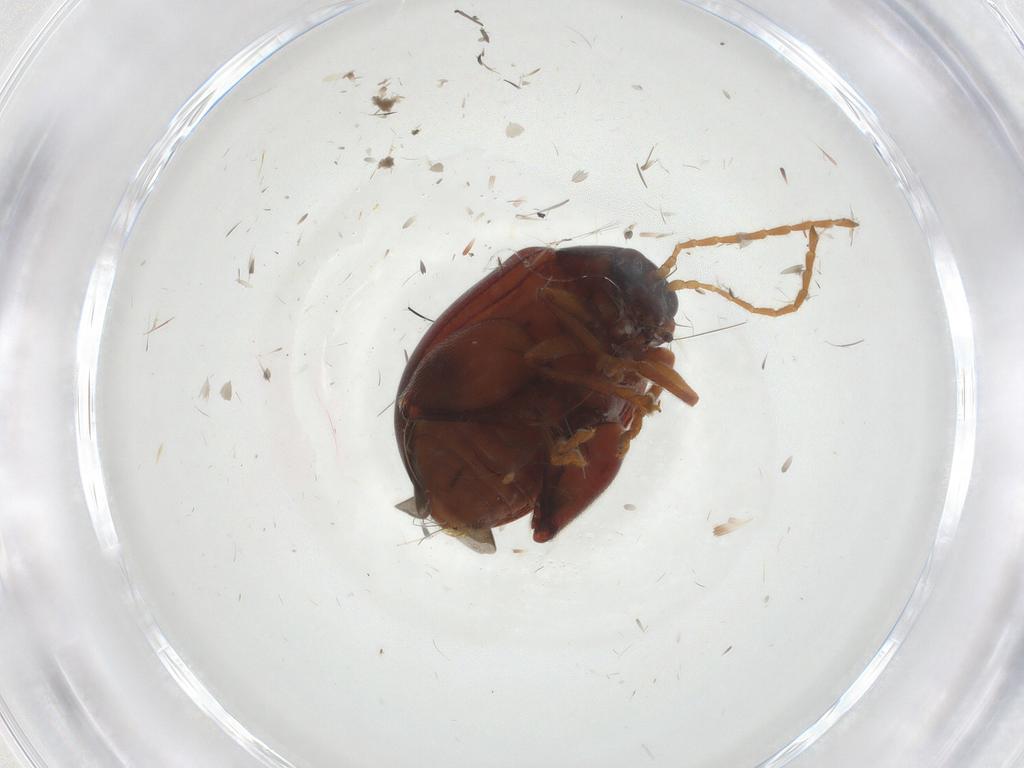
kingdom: Animalia
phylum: Arthropoda
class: Insecta
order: Coleoptera
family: Chrysomelidae
